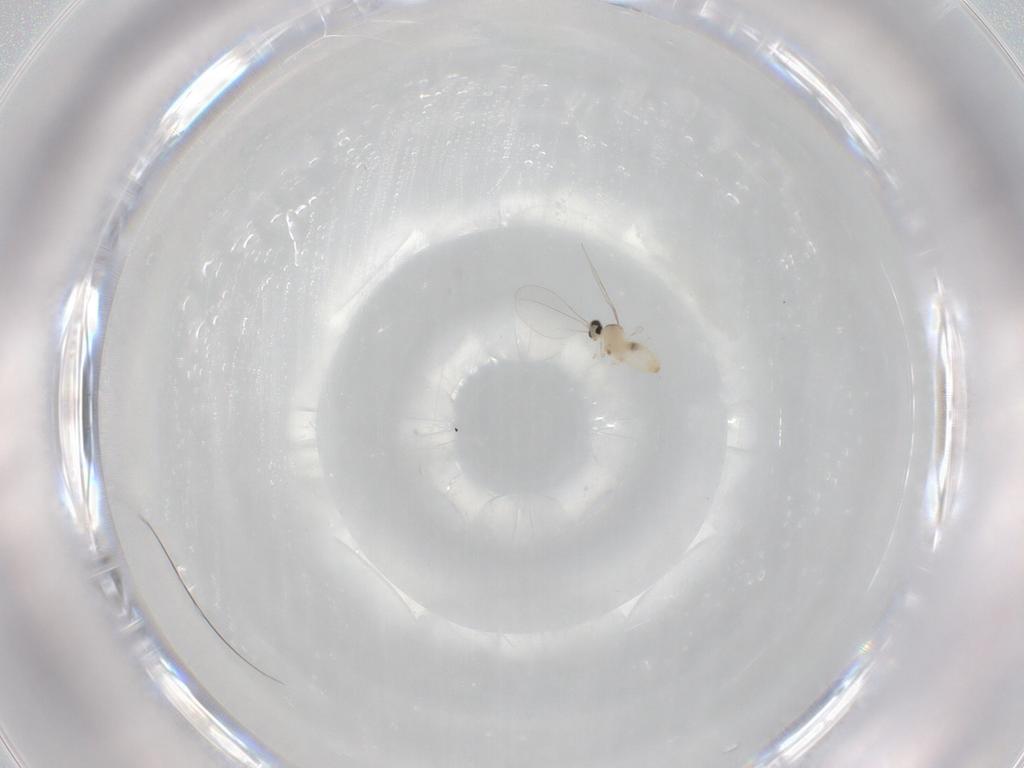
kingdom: Animalia
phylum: Arthropoda
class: Insecta
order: Diptera
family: Cecidomyiidae
